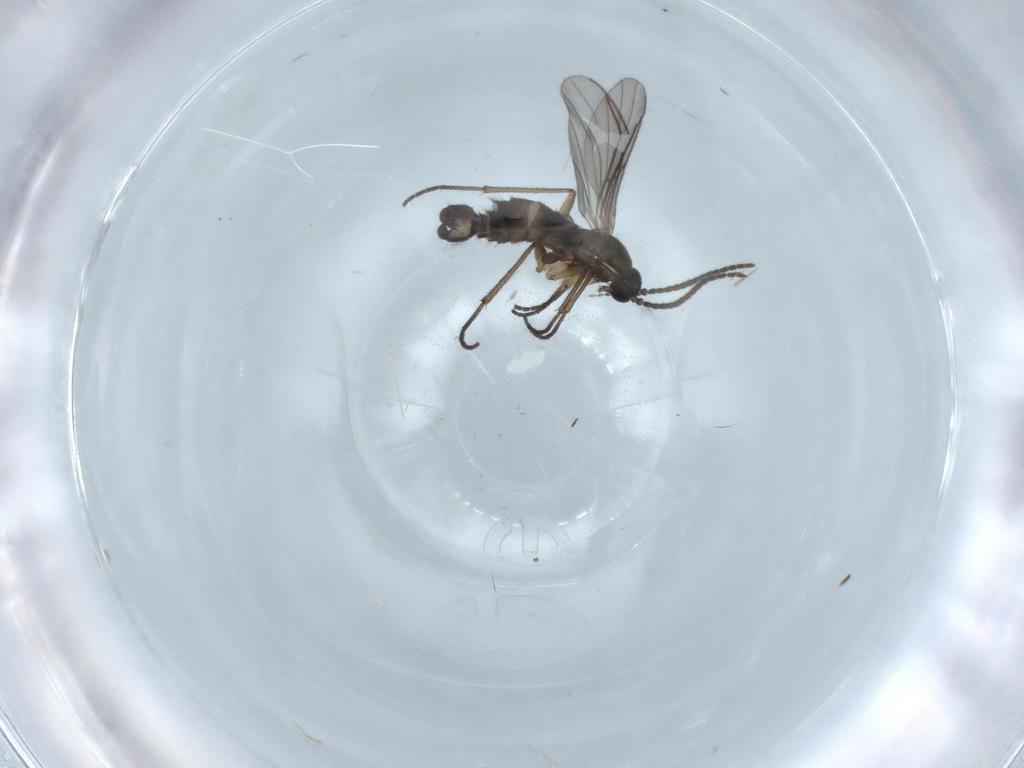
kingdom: Animalia
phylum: Arthropoda
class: Insecta
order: Diptera
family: Sciaridae
